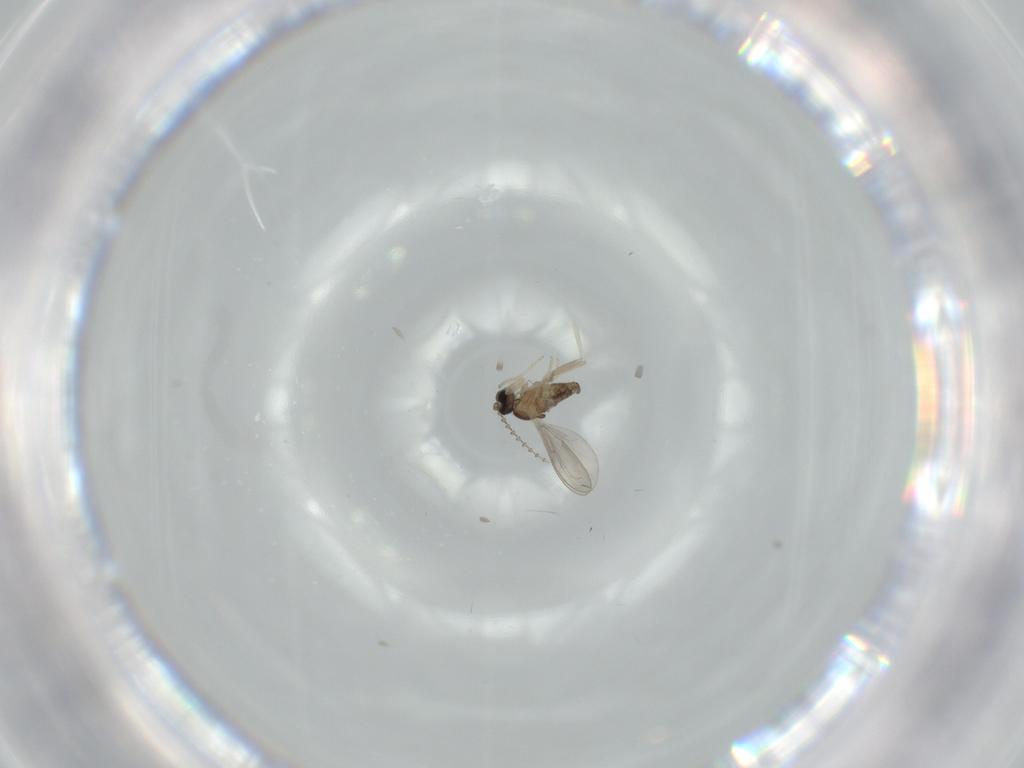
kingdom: Animalia
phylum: Arthropoda
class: Insecta
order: Diptera
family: Cecidomyiidae
